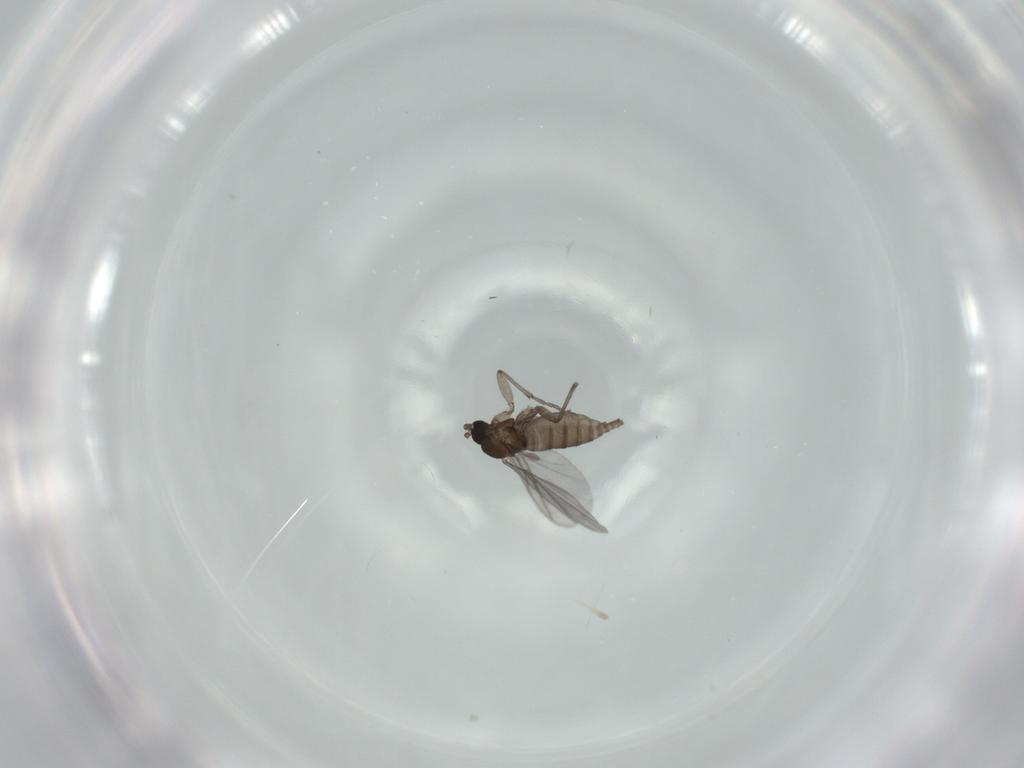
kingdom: Animalia
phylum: Arthropoda
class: Insecta
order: Diptera
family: Sciaridae
